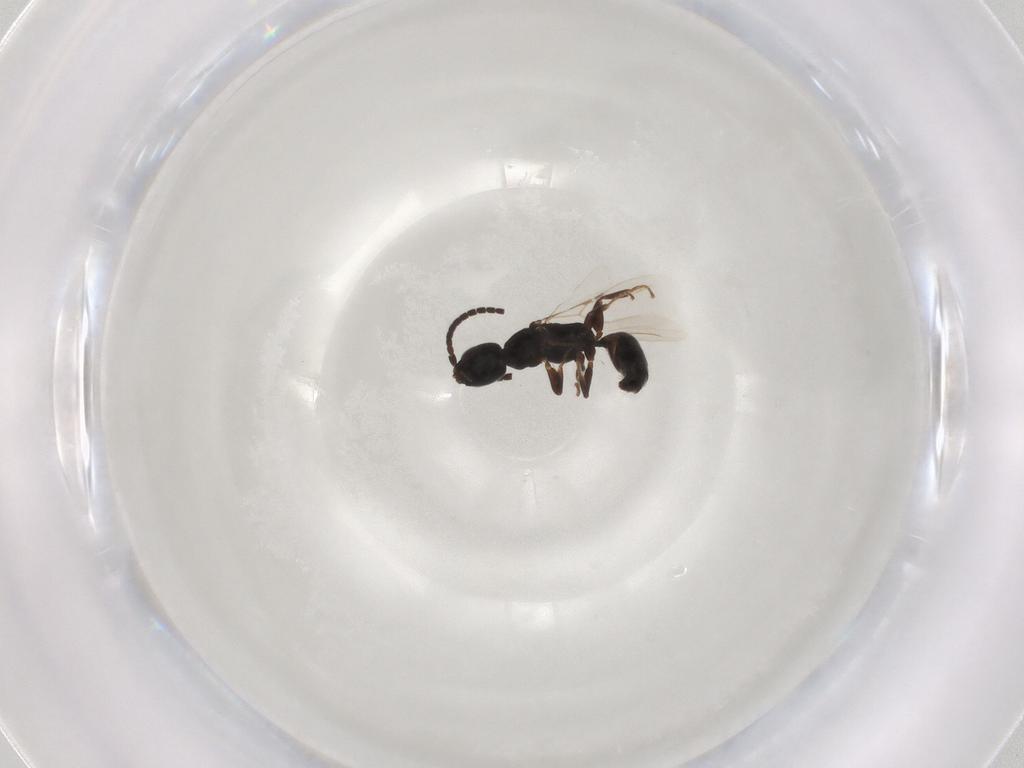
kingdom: Animalia
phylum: Arthropoda
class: Insecta
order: Hymenoptera
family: Bethylidae
